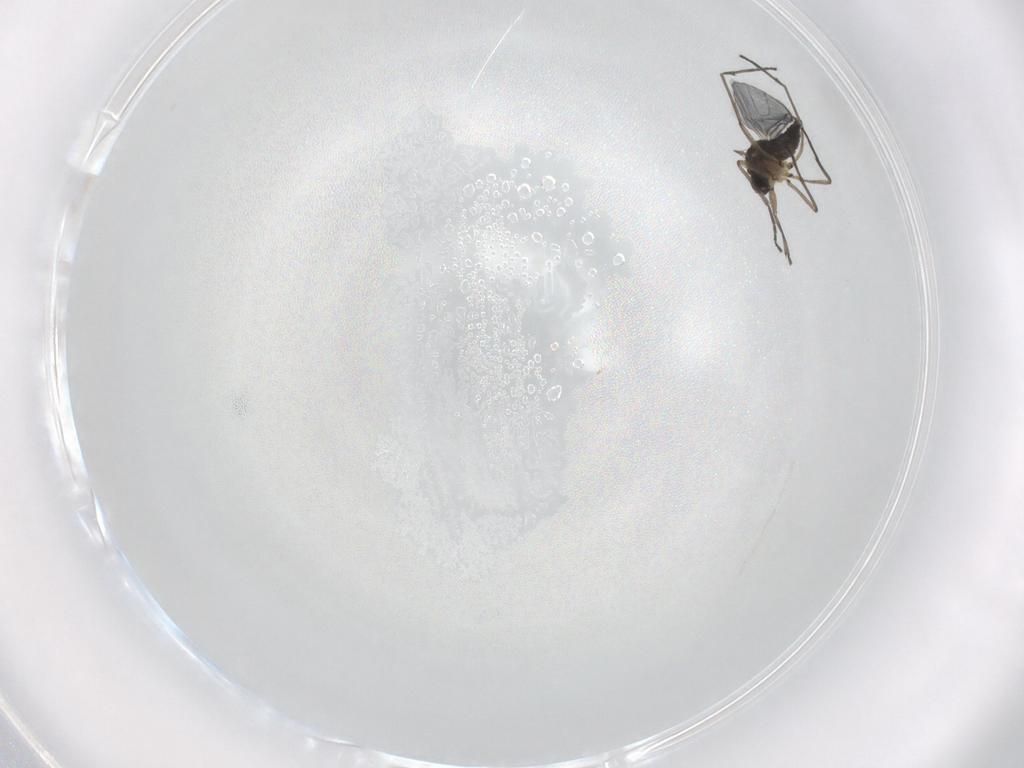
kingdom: Animalia
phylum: Arthropoda
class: Insecta
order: Diptera
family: Sciaridae
